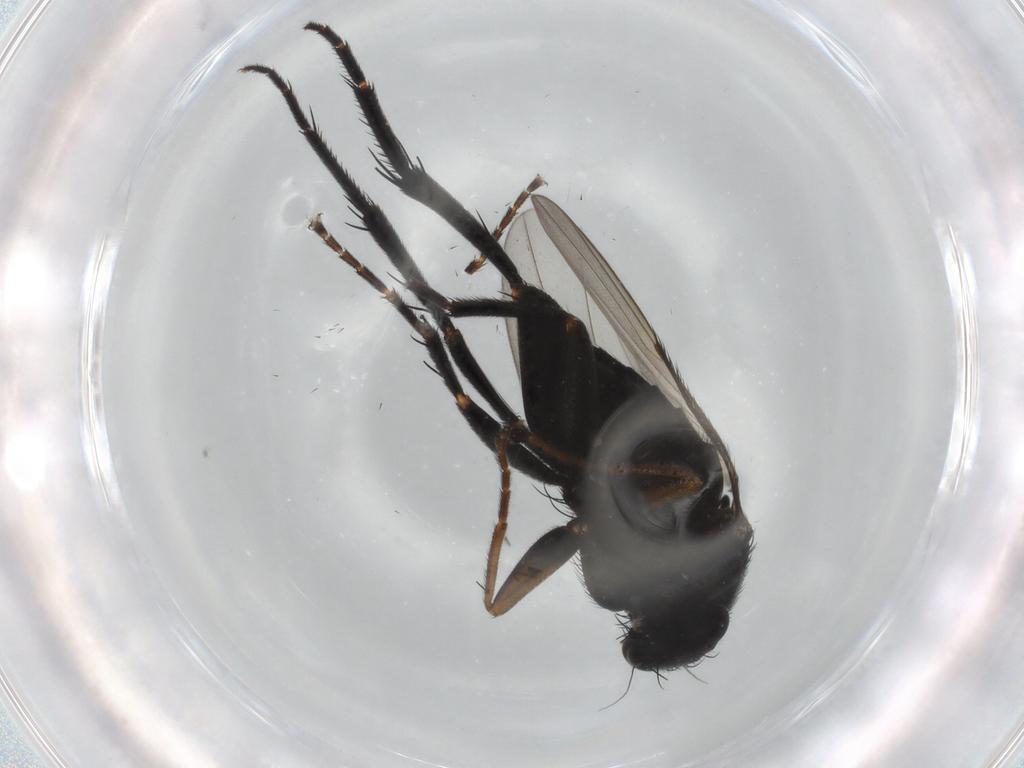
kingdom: Animalia
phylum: Arthropoda
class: Insecta
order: Diptera
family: Phoridae
